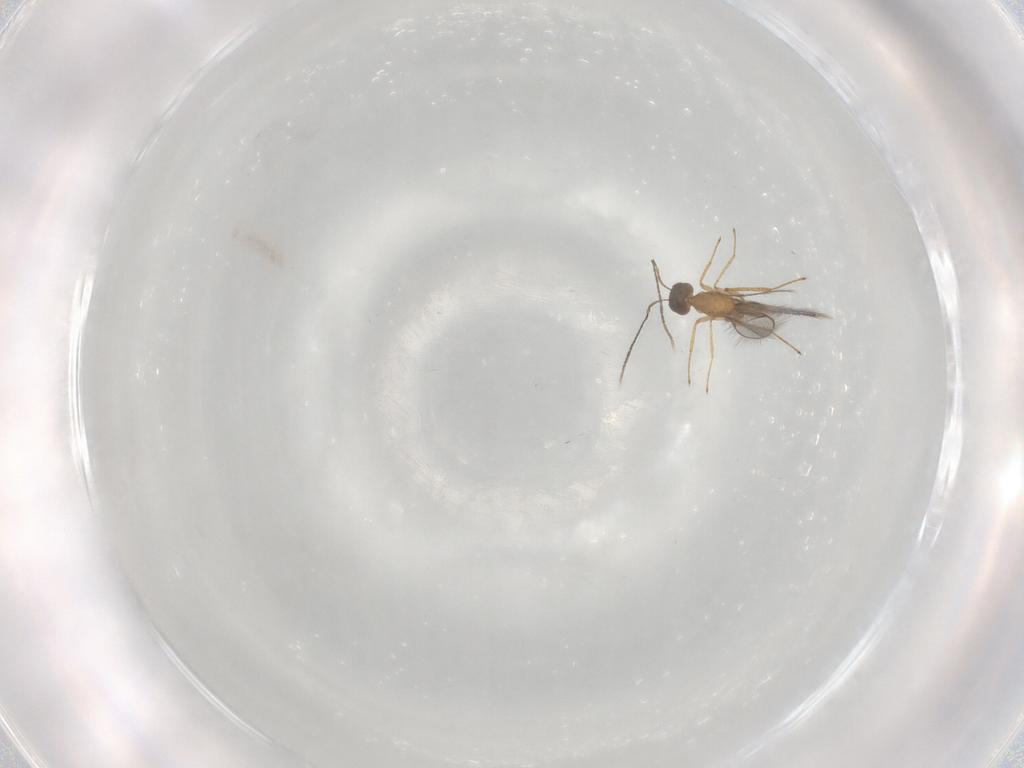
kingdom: Animalia
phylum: Arthropoda
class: Insecta
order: Hymenoptera
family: Mymaridae
